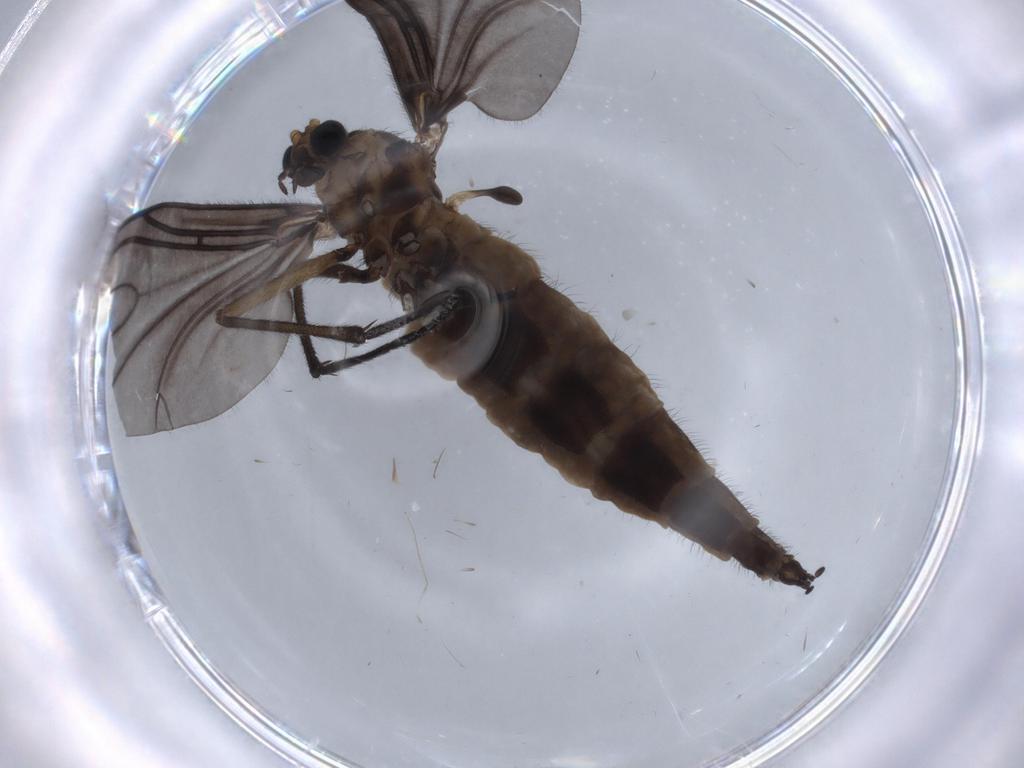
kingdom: Animalia
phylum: Arthropoda
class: Insecta
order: Diptera
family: Sciaridae
